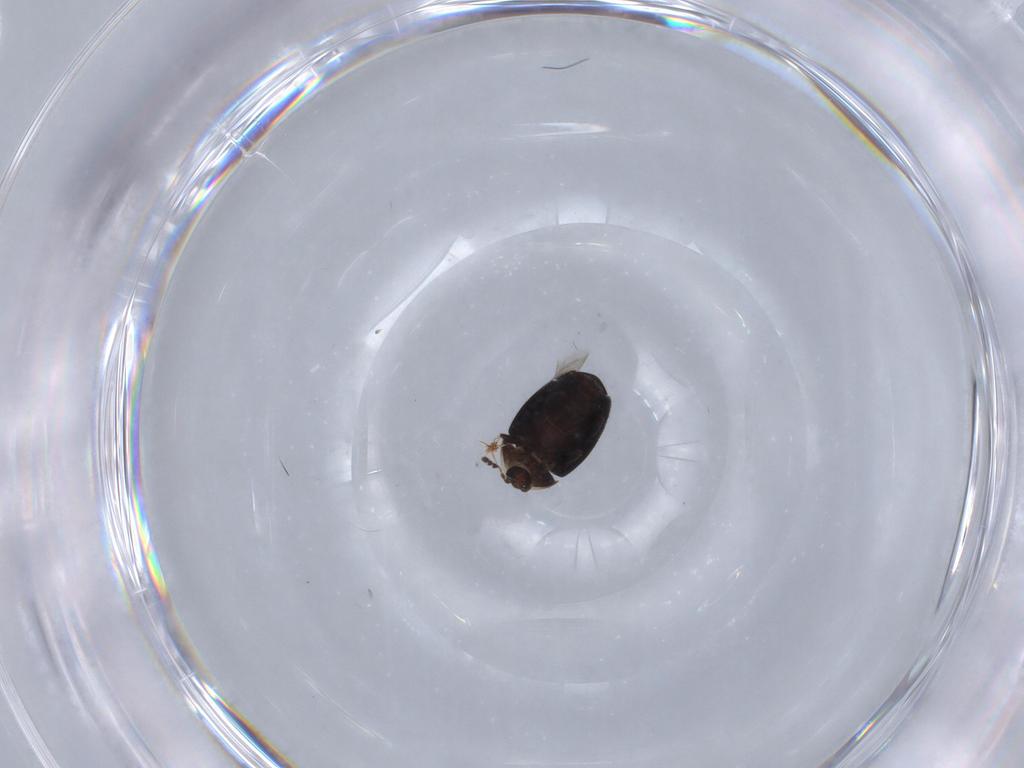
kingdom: Animalia
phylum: Arthropoda
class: Insecta
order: Coleoptera
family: Corylophidae
